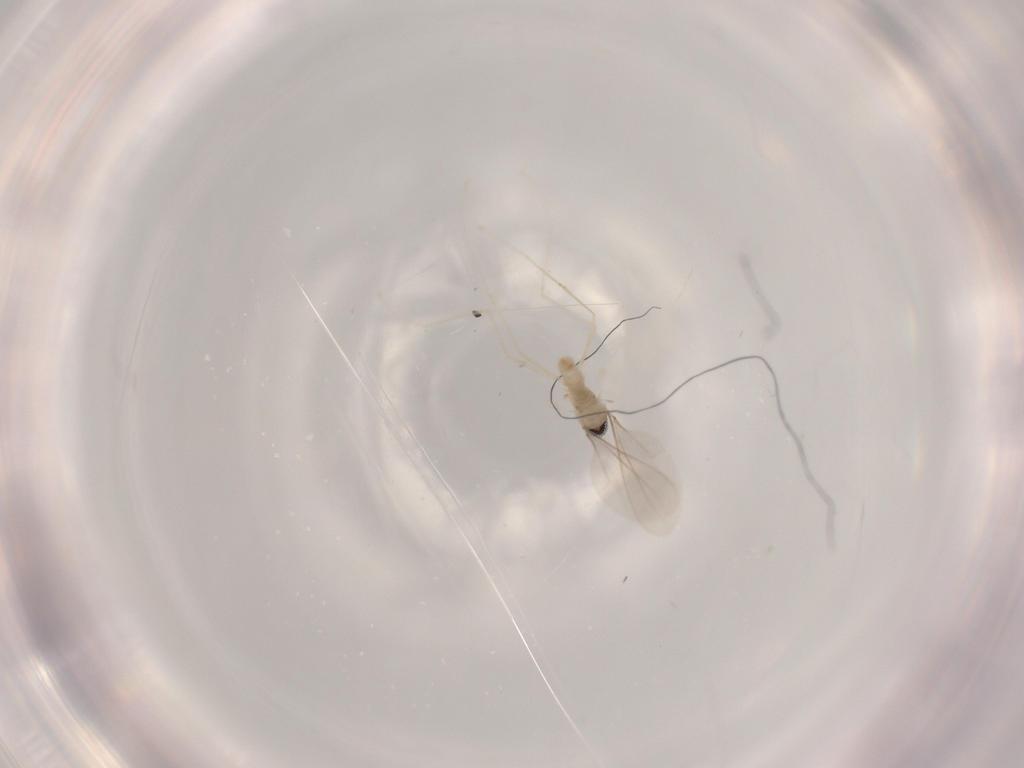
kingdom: Animalia
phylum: Arthropoda
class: Insecta
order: Diptera
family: Cecidomyiidae
